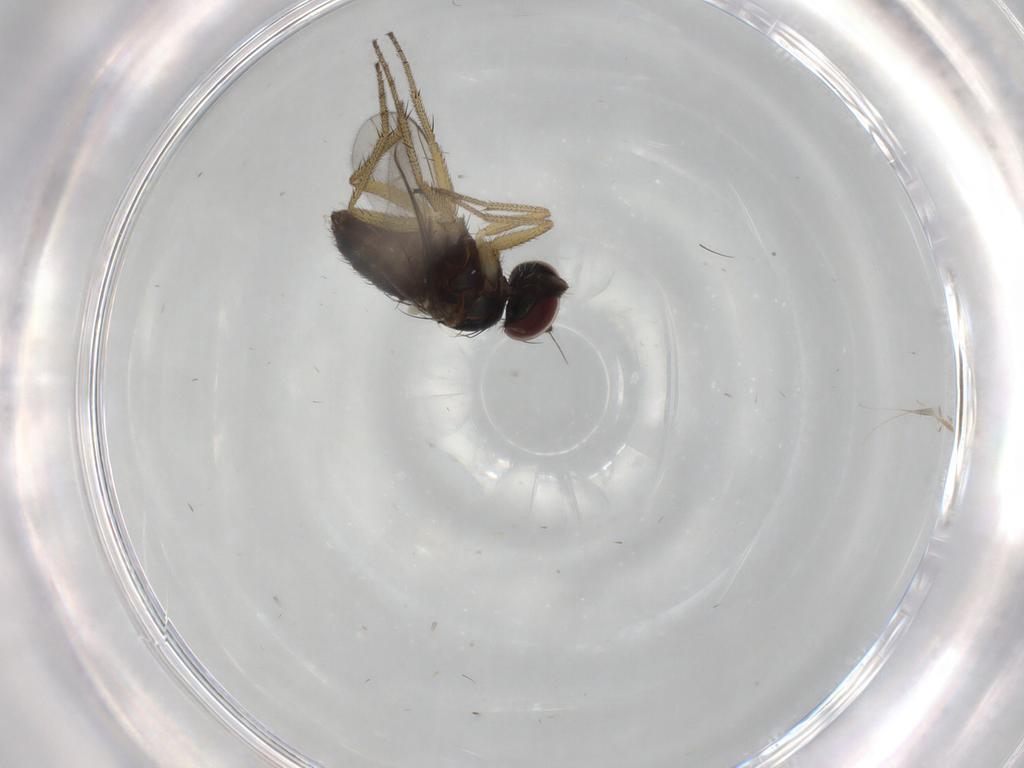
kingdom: Animalia
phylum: Arthropoda
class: Insecta
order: Diptera
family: Dolichopodidae
